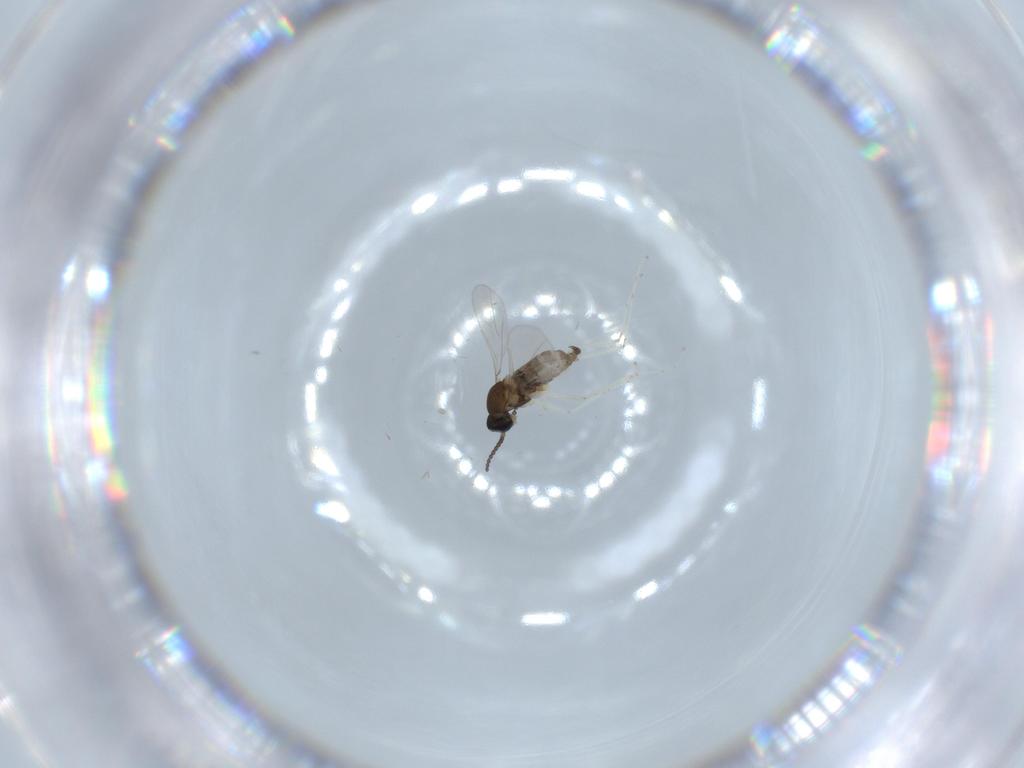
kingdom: Animalia
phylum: Arthropoda
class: Insecta
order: Diptera
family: Cecidomyiidae
